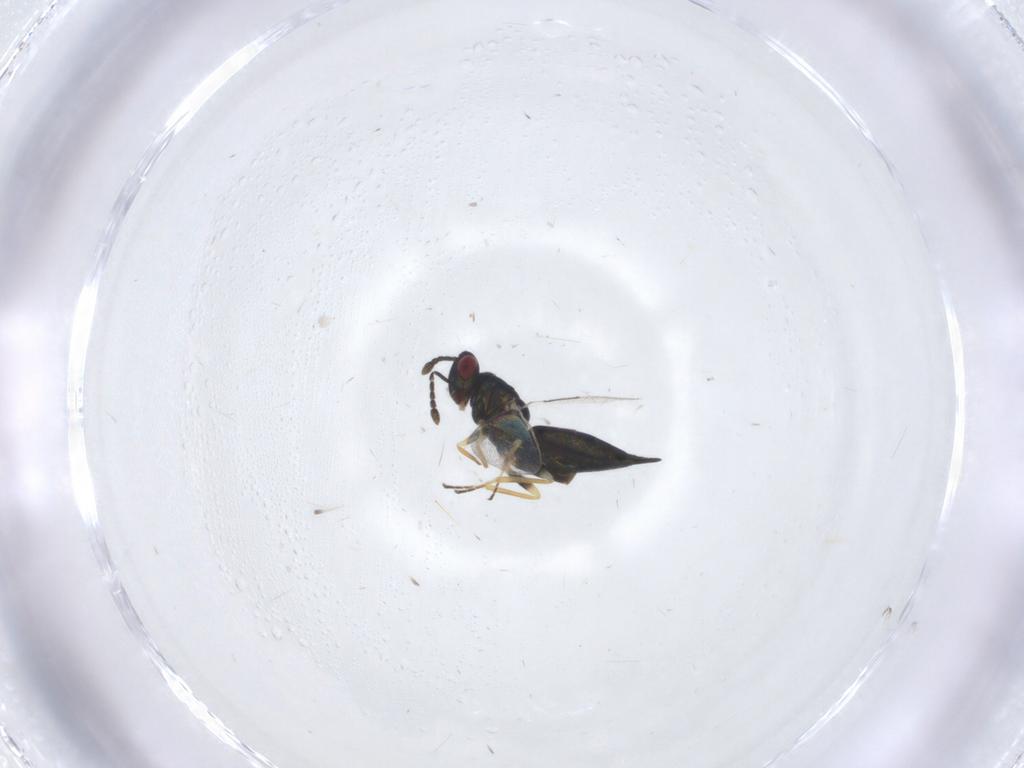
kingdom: Animalia
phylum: Arthropoda
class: Insecta
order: Hymenoptera
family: Eulophidae
